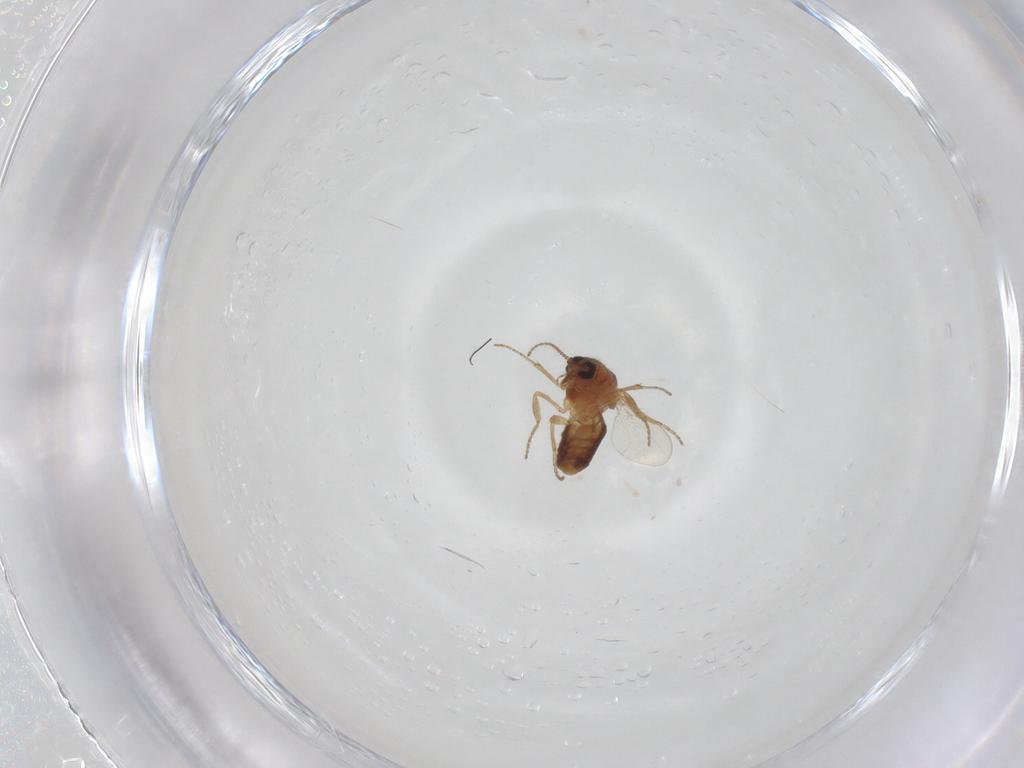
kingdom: Animalia
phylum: Arthropoda
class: Insecta
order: Diptera
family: Ceratopogonidae
